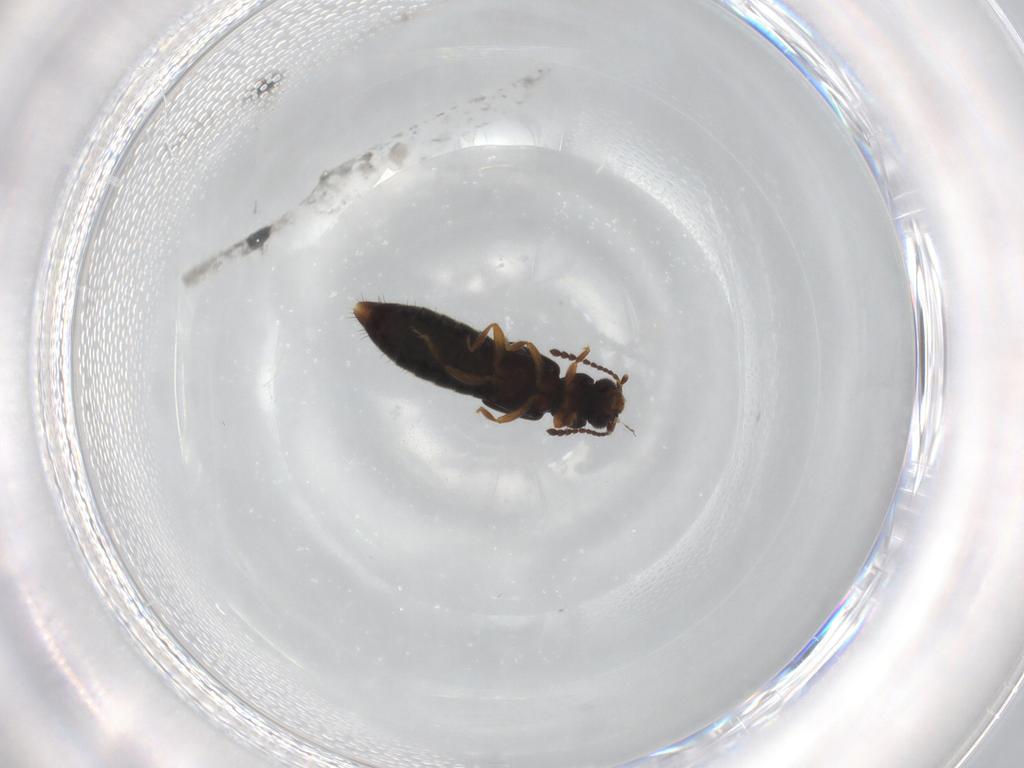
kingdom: Animalia
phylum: Arthropoda
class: Insecta
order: Coleoptera
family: Staphylinidae
